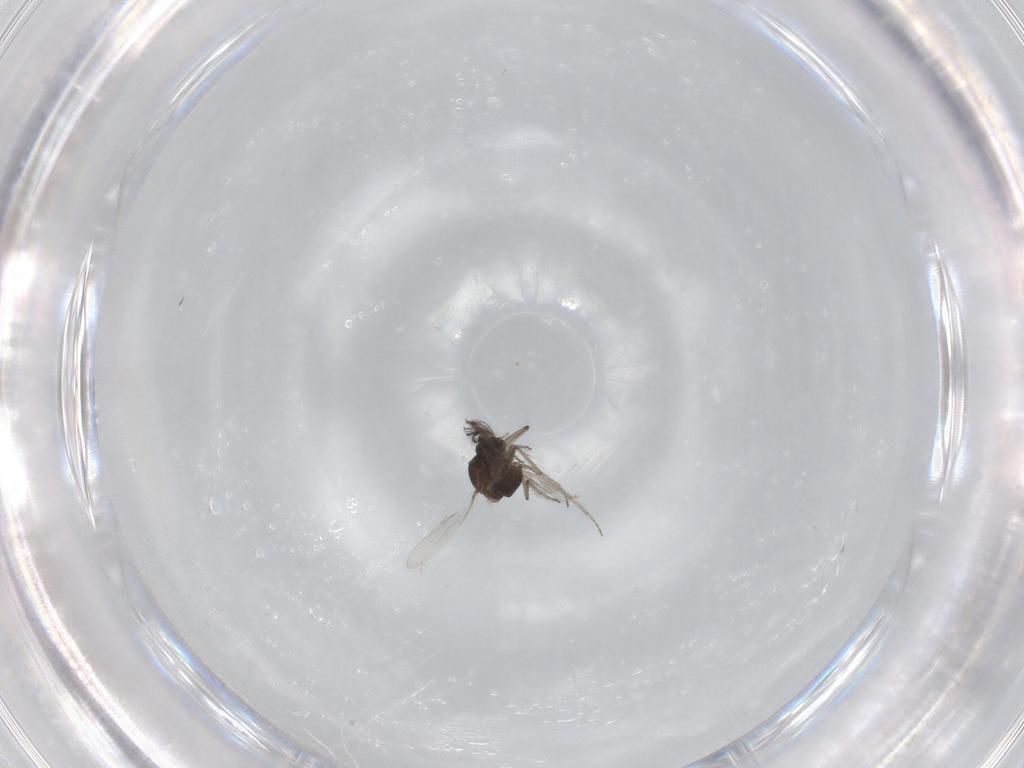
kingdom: Animalia
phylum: Arthropoda
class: Insecta
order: Diptera
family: Ceratopogonidae
